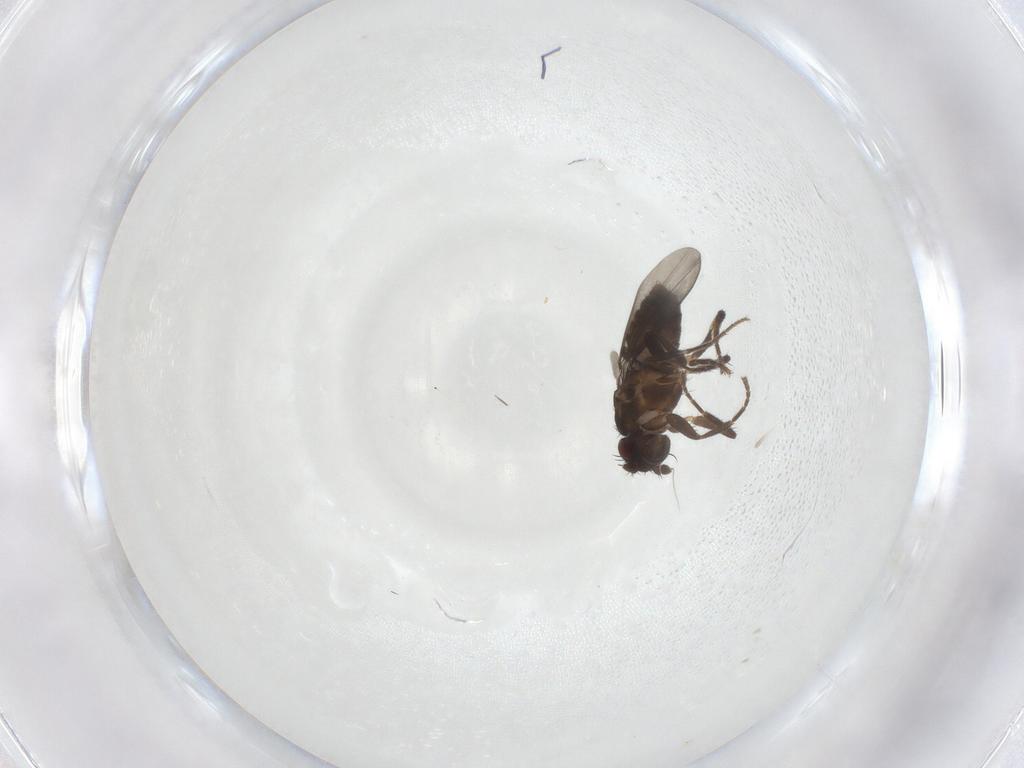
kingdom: Animalia
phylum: Arthropoda
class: Insecta
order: Diptera
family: Sphaeroceridae
